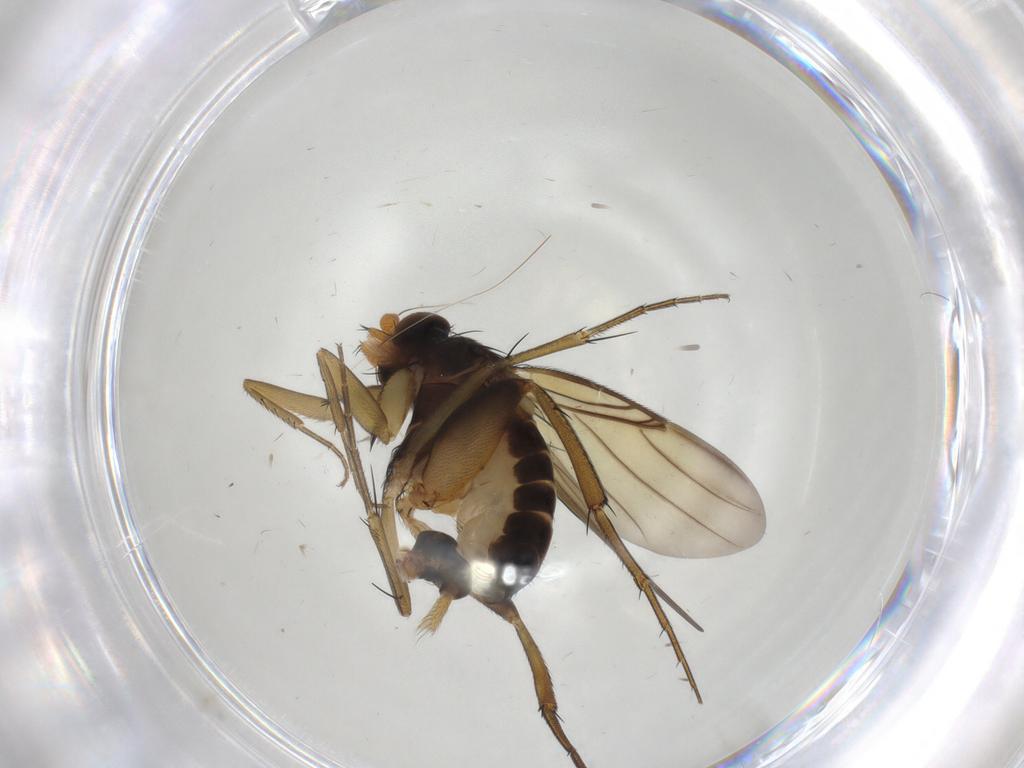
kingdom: Animalia
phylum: Arthropoda
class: Insecta
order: Diptera
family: Phoridae
